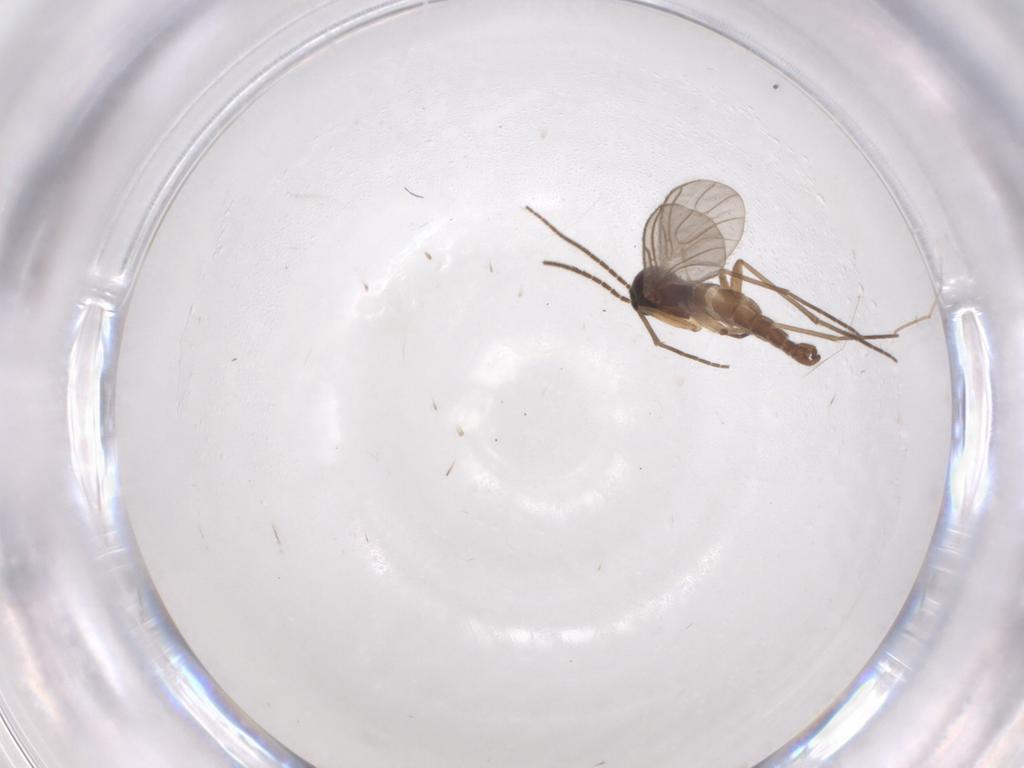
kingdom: Animalia
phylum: Arthropoda
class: Insecta
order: Diptera
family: Sciaridae
